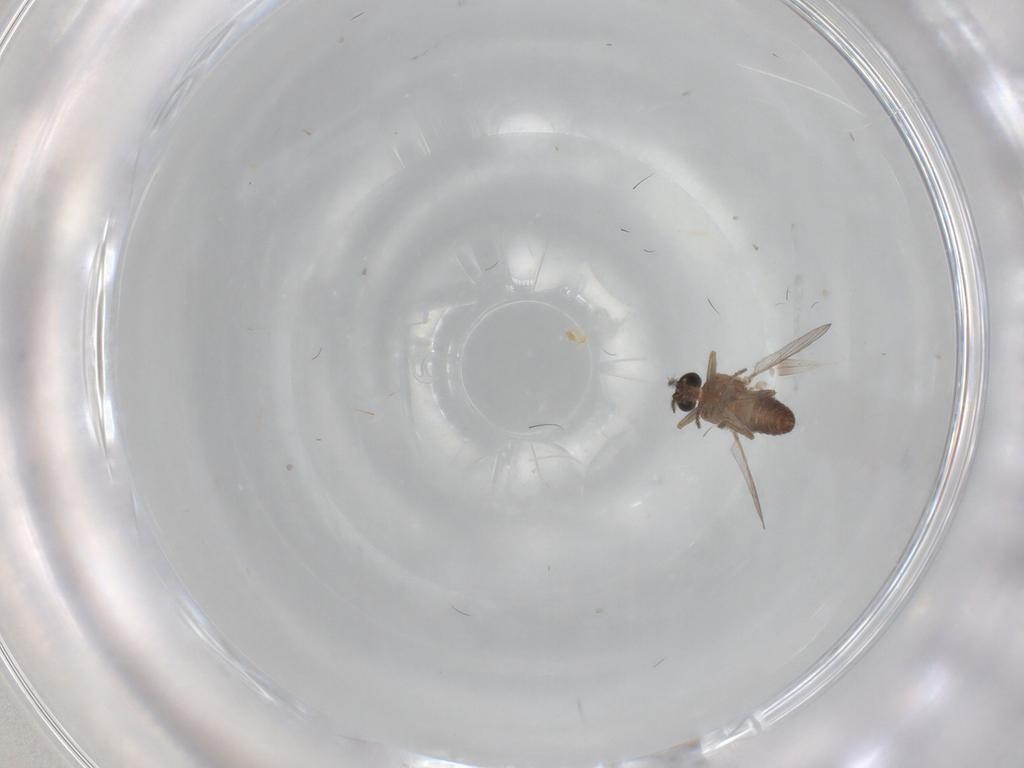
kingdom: Animalia
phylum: Arthropoda
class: Insecta
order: Diptera
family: Ceratopogonidae
